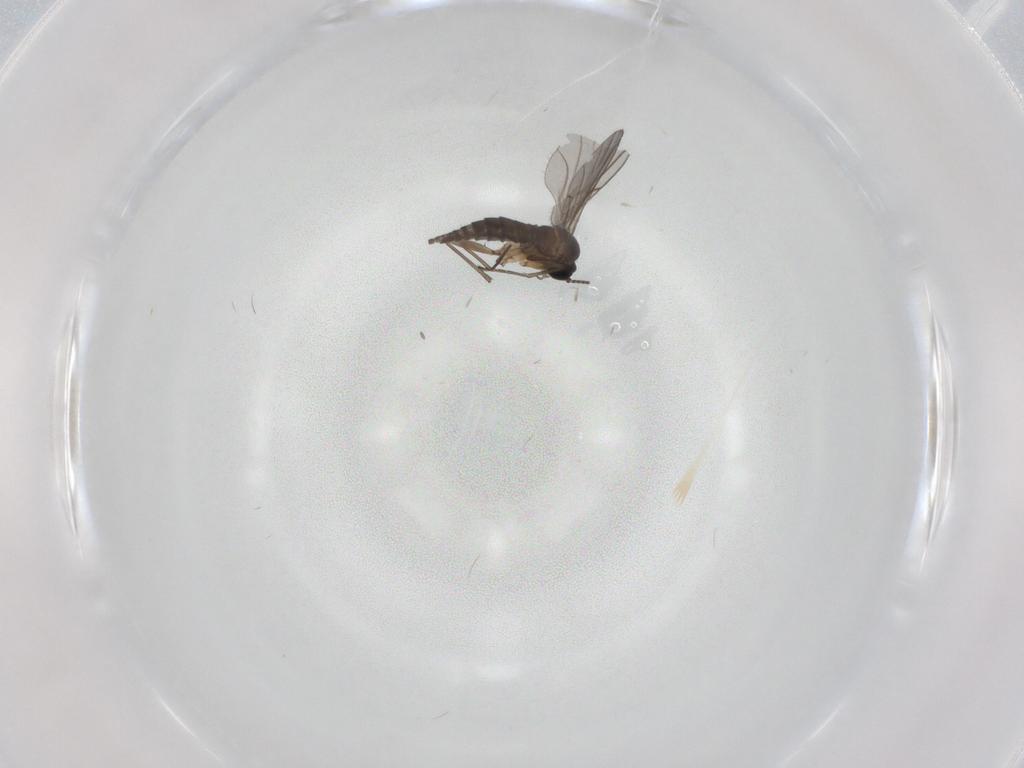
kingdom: Animalia
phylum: Arthropoda
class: Insecta
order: Diptera
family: Sciaridae
